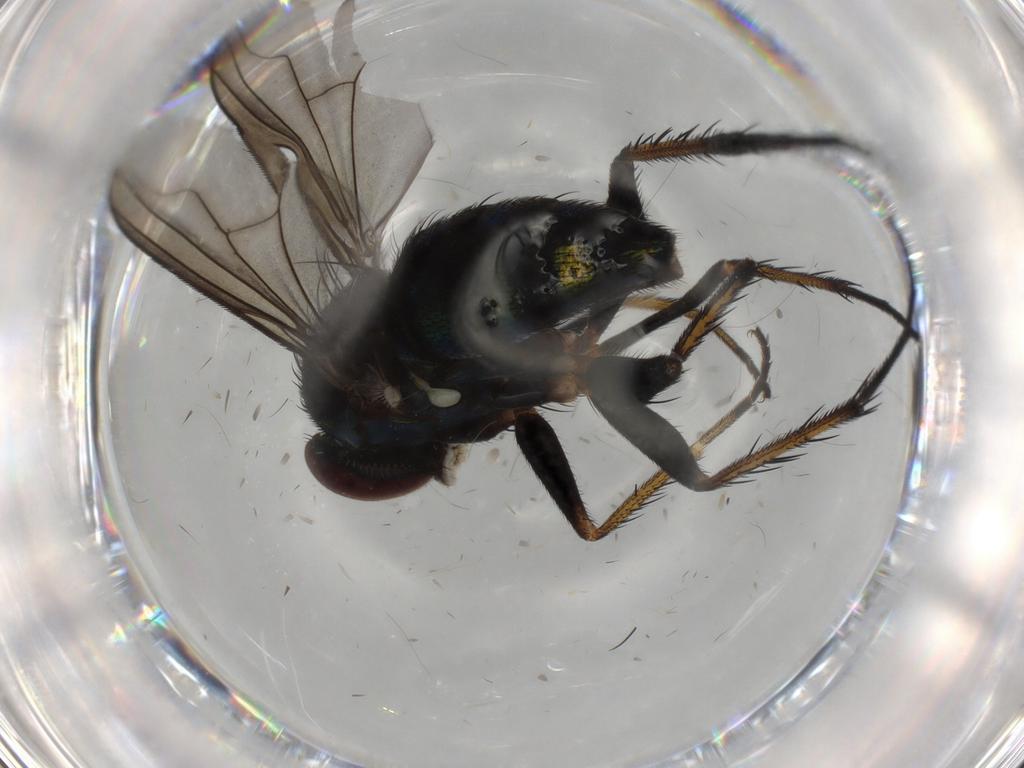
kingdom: Animalia
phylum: Arthropoda
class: Insecta
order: Diptera
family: Dolichopodidae
